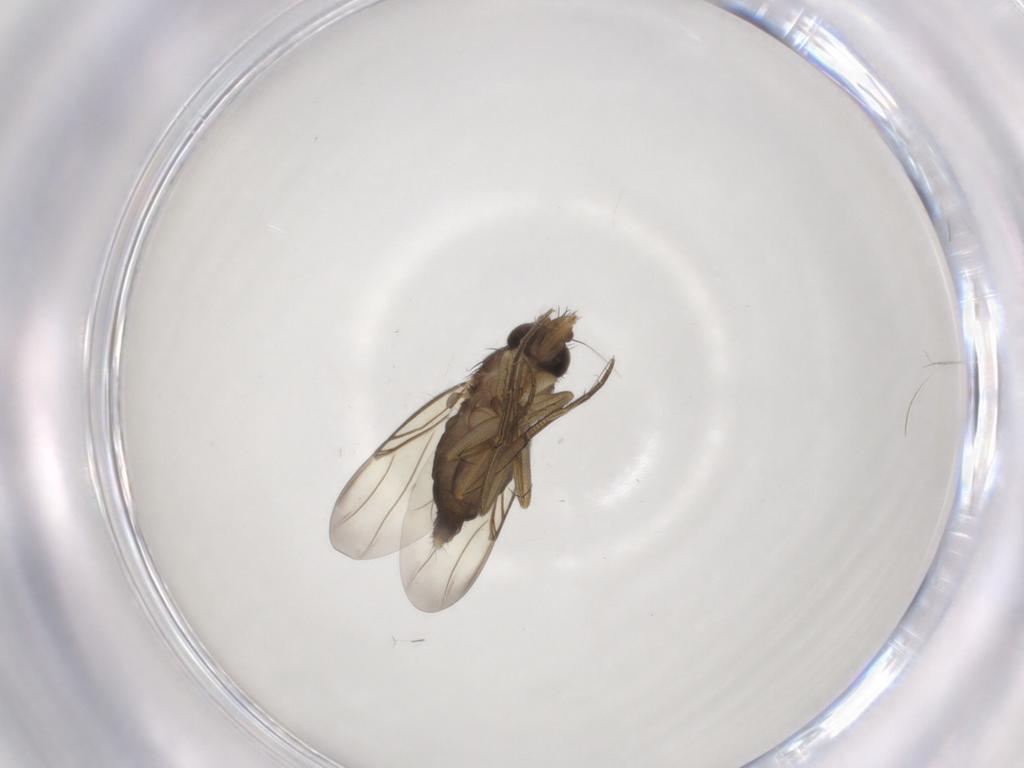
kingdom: Animalia
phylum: Arthropoda
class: Insecta
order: Diptera
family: Phoridae
